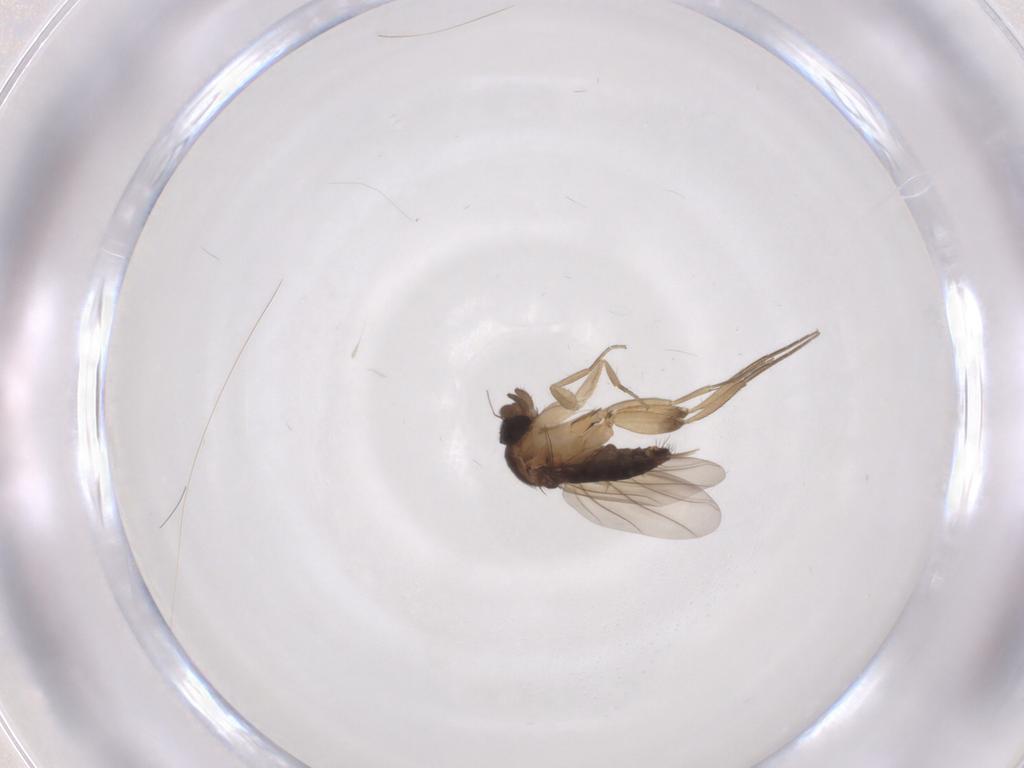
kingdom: Animalia
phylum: Arthropoda
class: Insecta
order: Diptera
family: Phoridae
